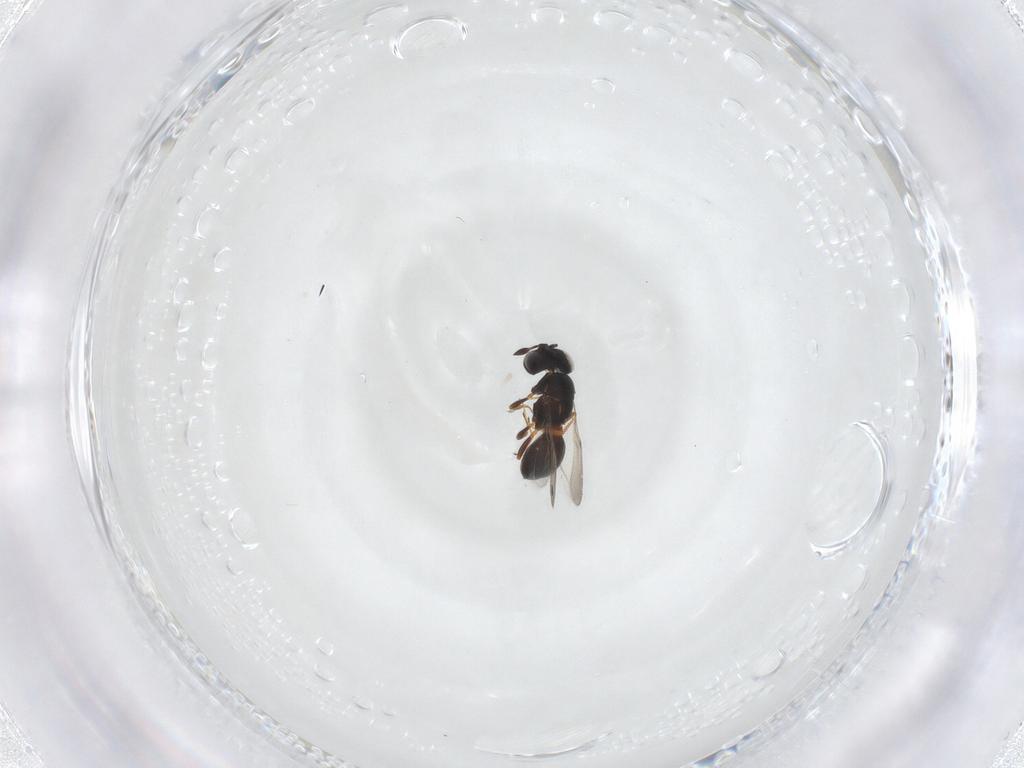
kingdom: Animalia
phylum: Arthropoda
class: Arachnida
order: Araneae
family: Pholcidae
